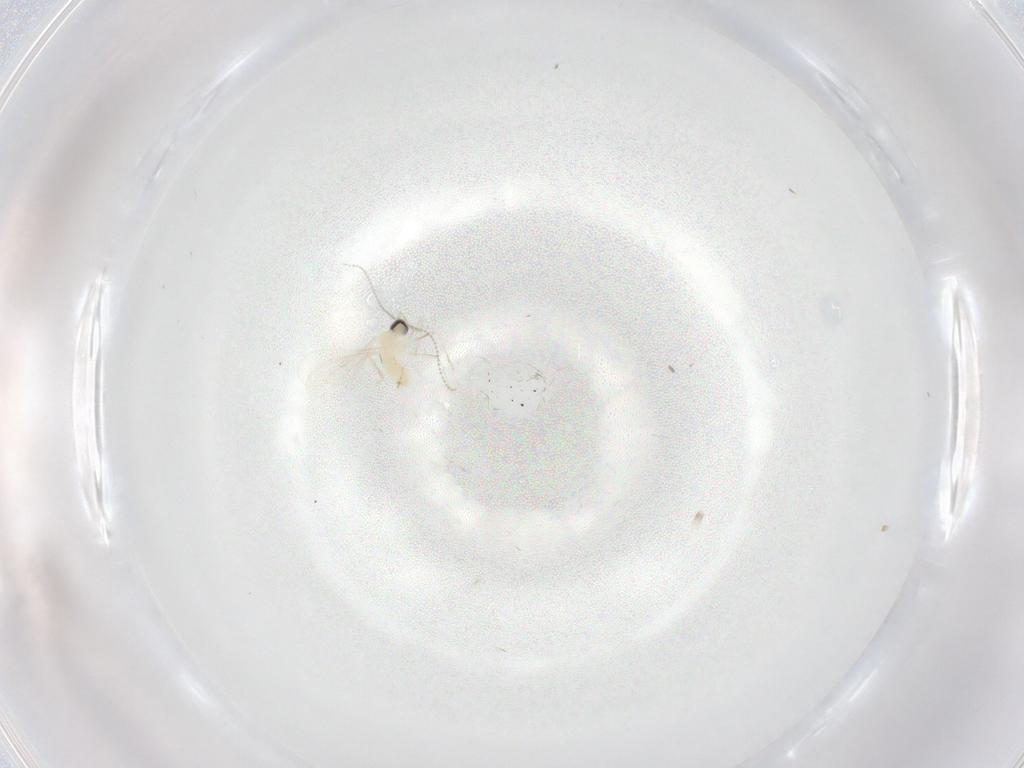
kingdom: Animalia
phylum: Arthropoda
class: Insecta
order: Diptera
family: Cecidomyiidae
